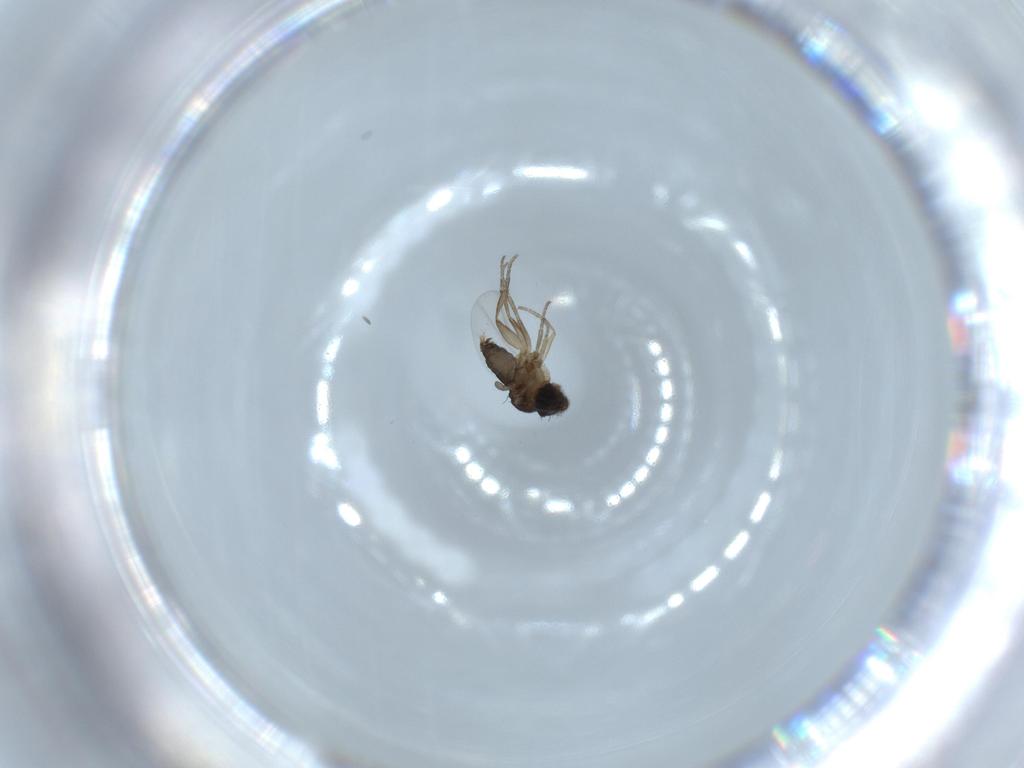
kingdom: Animalia
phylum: Arthropoda
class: Insecta
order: Diptera
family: Phoridae
